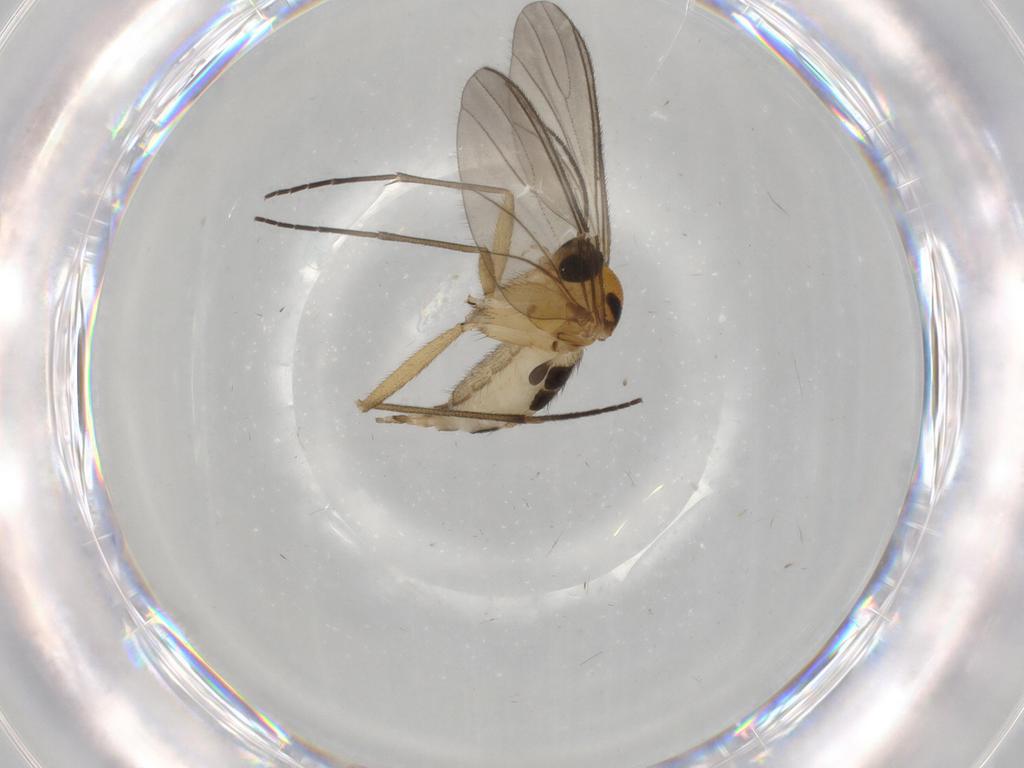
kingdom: Animalia
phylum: Arthropoda
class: Insecta
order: Diptera
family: Sciaridae
